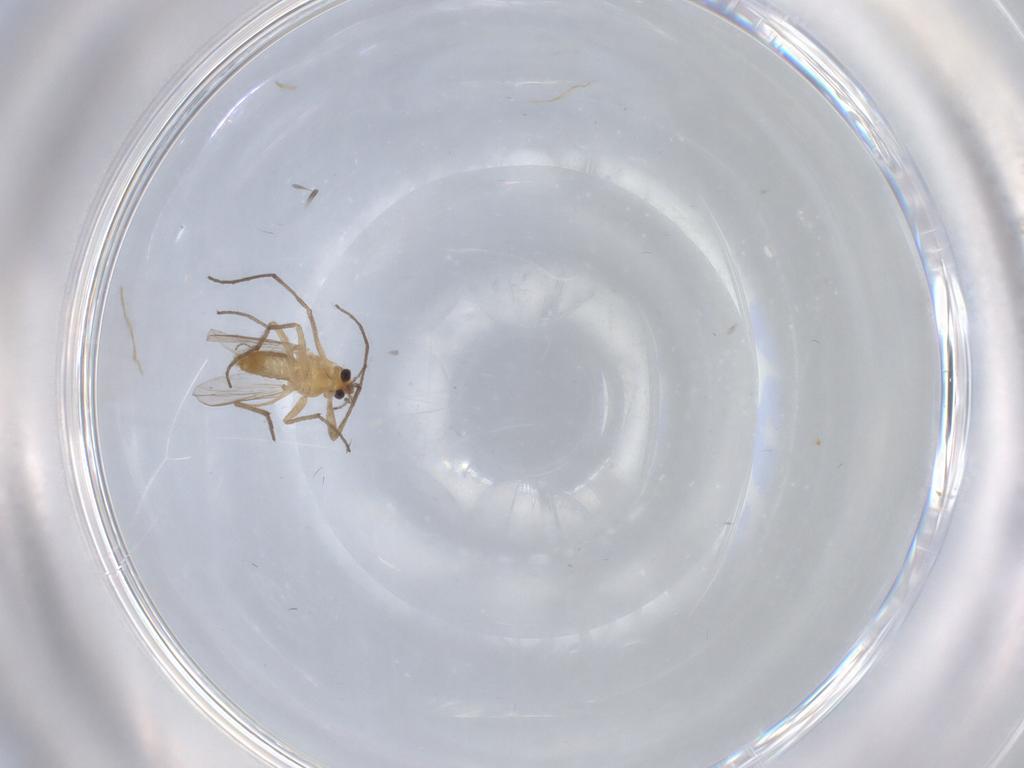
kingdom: Animalia
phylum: Arthropoda
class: Insecta
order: Diptera
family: Chironomidae
